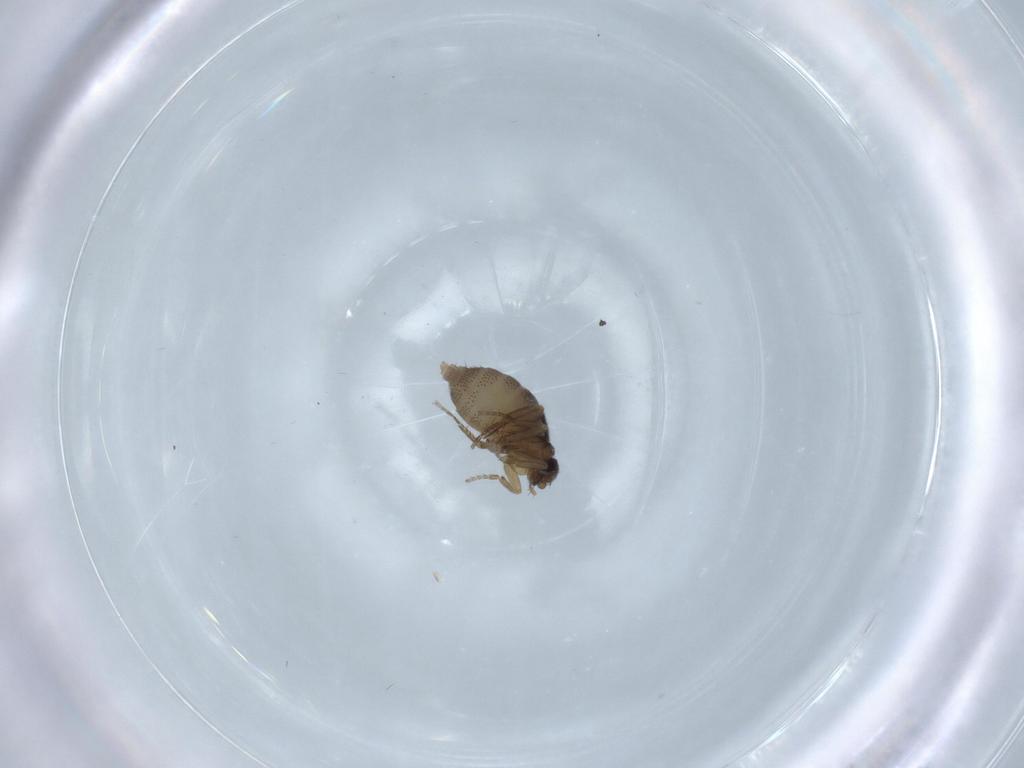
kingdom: Animalia
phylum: Arthropoda
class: Insecta
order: Diptera
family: Phoridae
